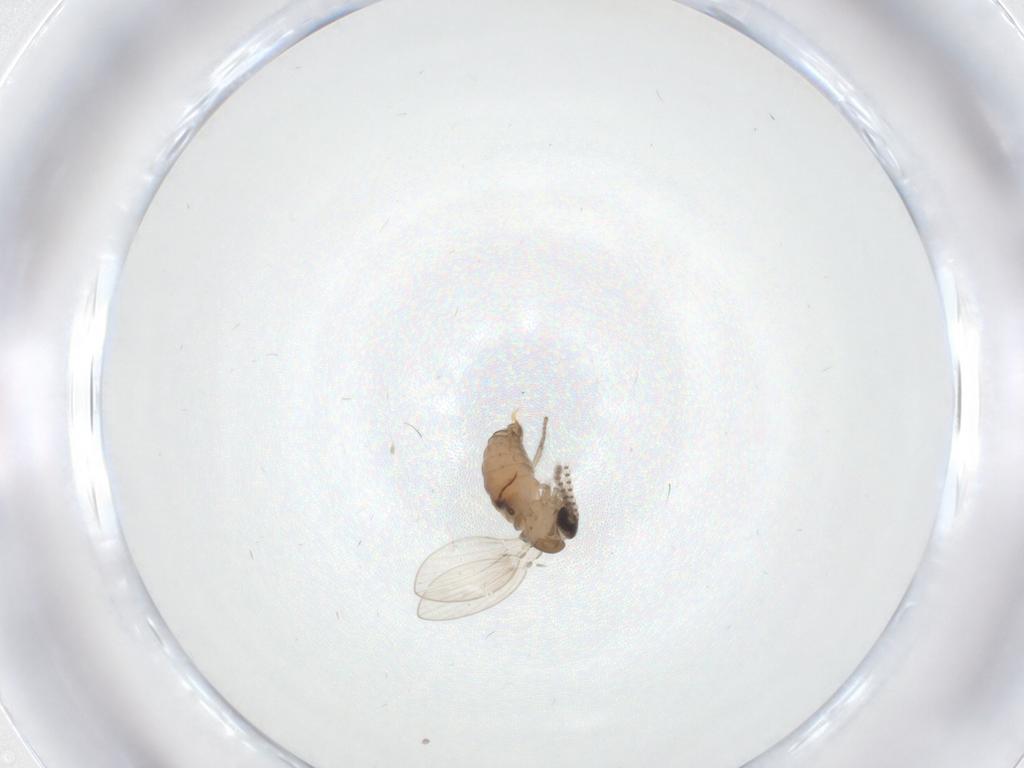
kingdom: Animalia
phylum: Arthropoda
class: Insecta
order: Diptera
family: Psychodidae
